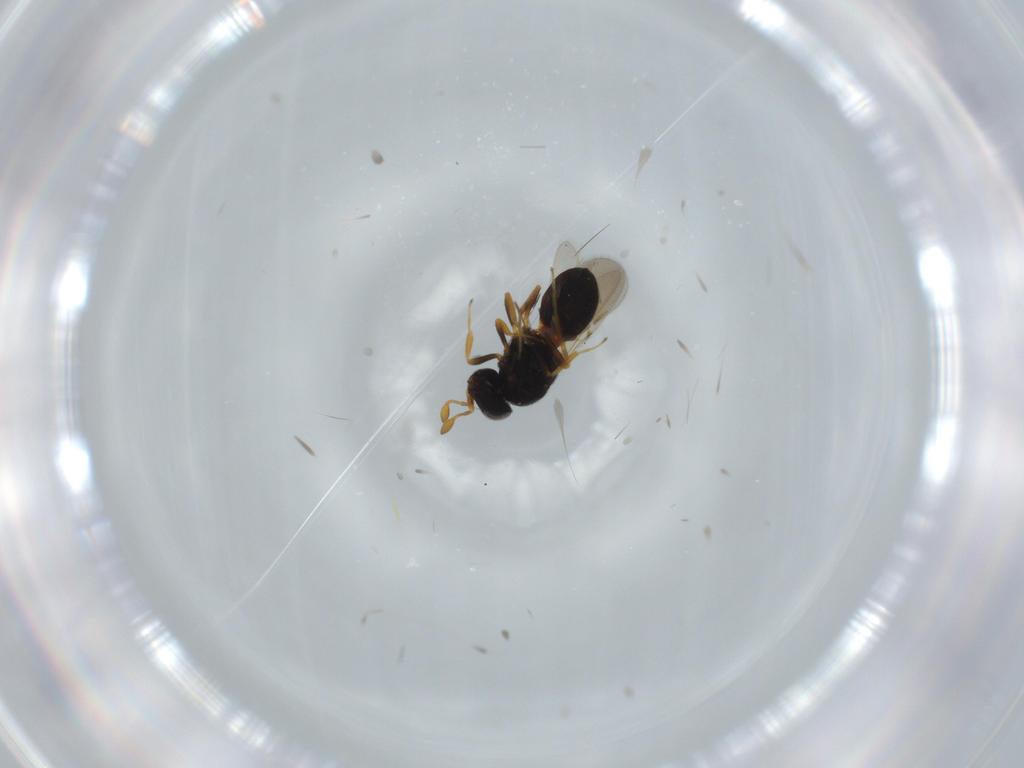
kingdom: Animalia
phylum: Arthropoda
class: Insecta
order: Hymenoptera
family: Scelionidae
